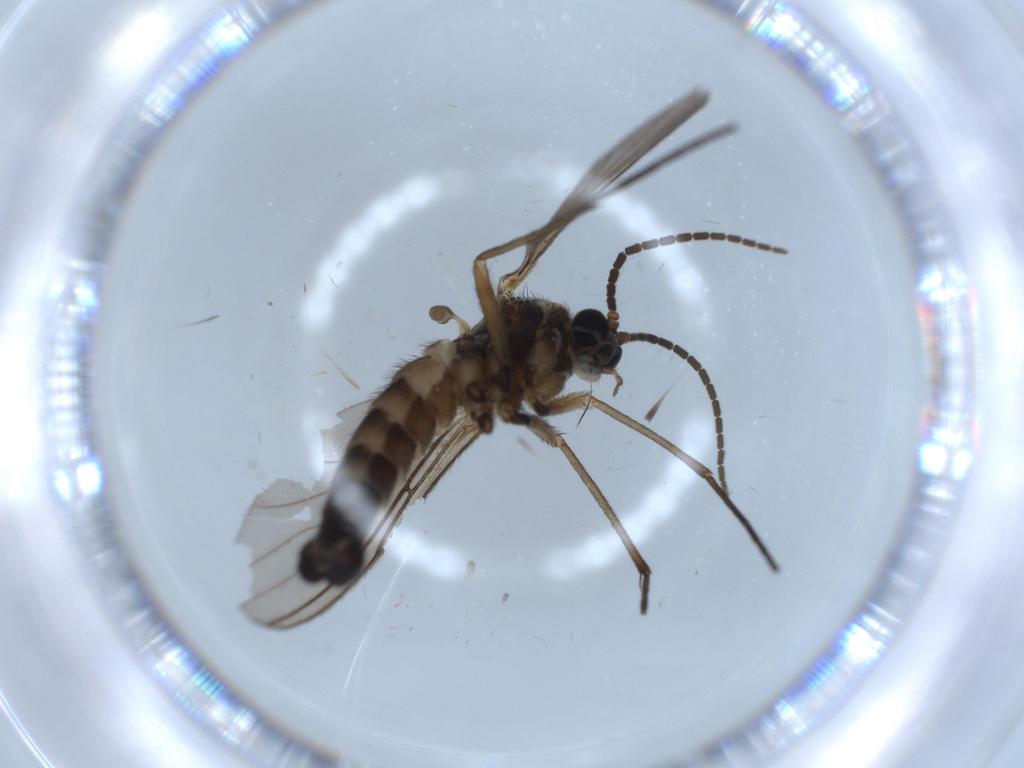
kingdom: Animalia
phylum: Arthropoda
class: Insecta
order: Diptera
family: Sciaridae
